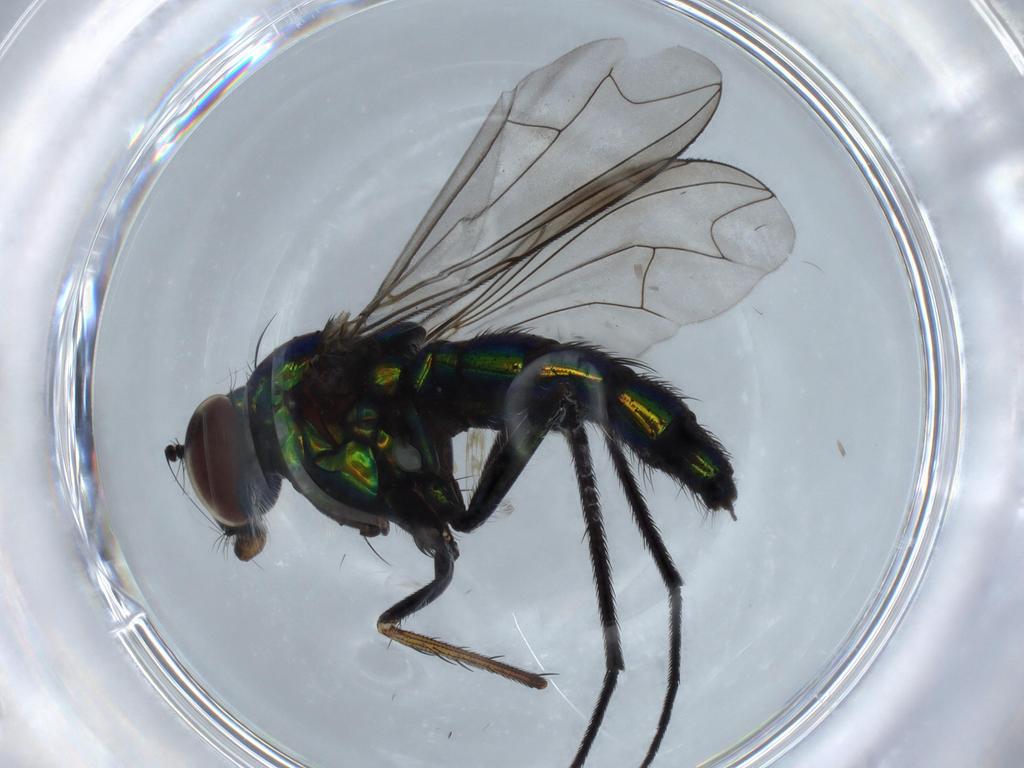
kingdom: Animalia
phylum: Arthropoda
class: Insecta
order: Diptera
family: Dolichopodidae
